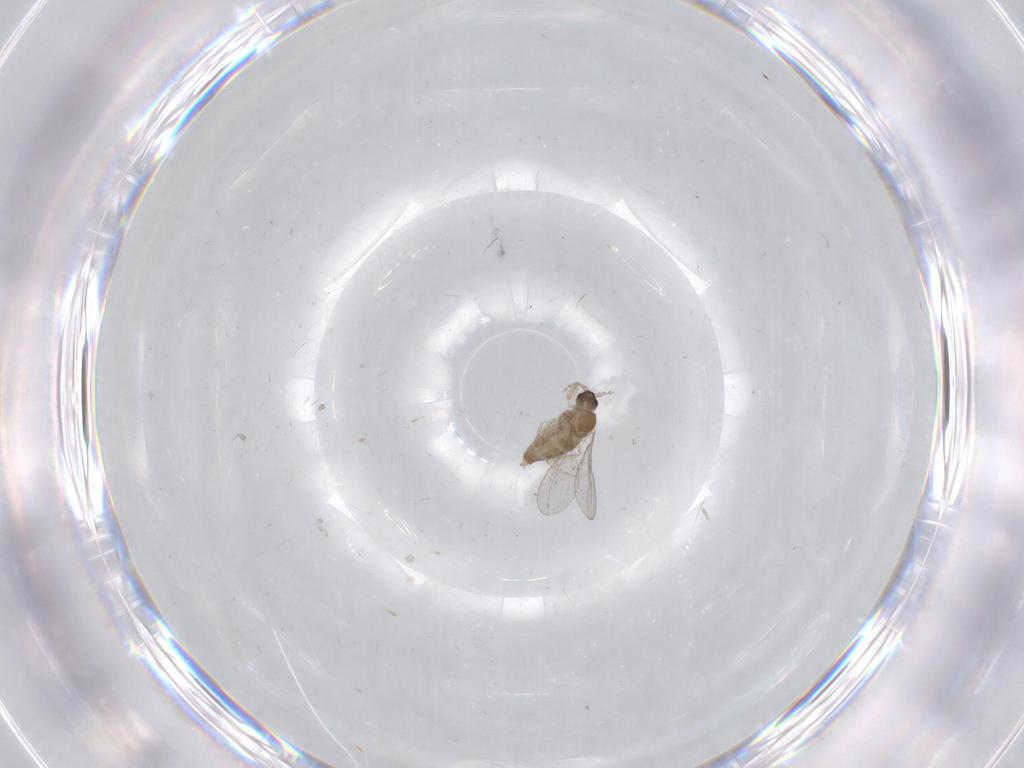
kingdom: Animalia
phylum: Arthropoda
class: Insecta
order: Diptera
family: Cecidomyiidae
